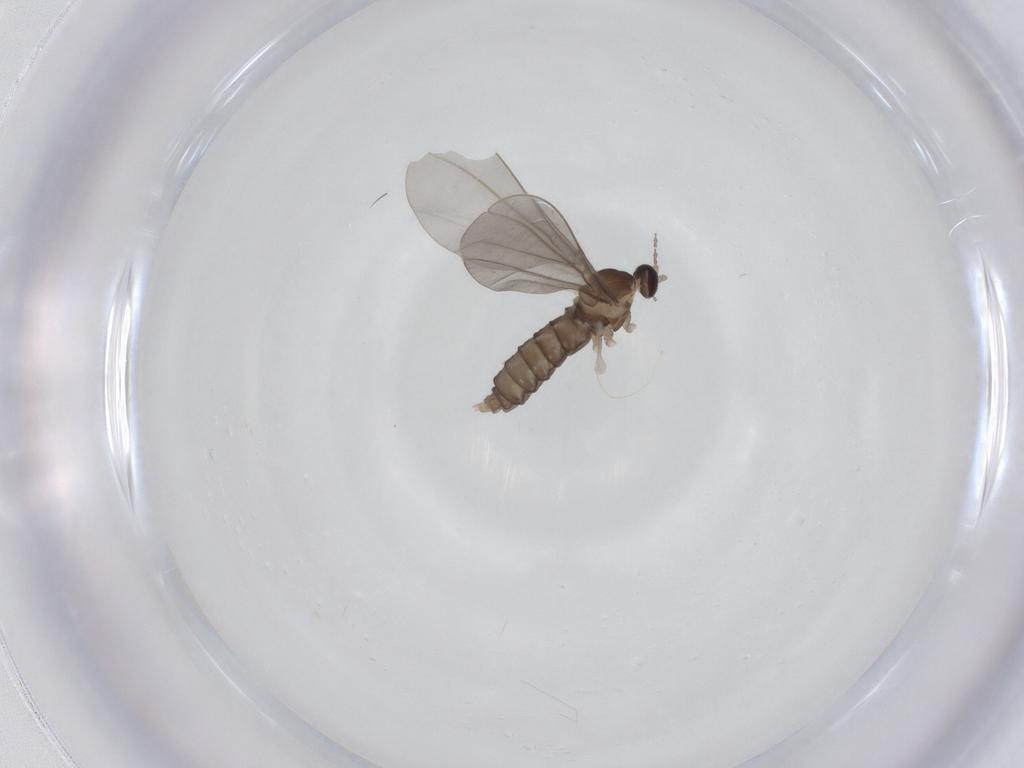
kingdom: Animalia
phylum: Arthropoda
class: Insecta
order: Diptera
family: Cecidomyiidae
